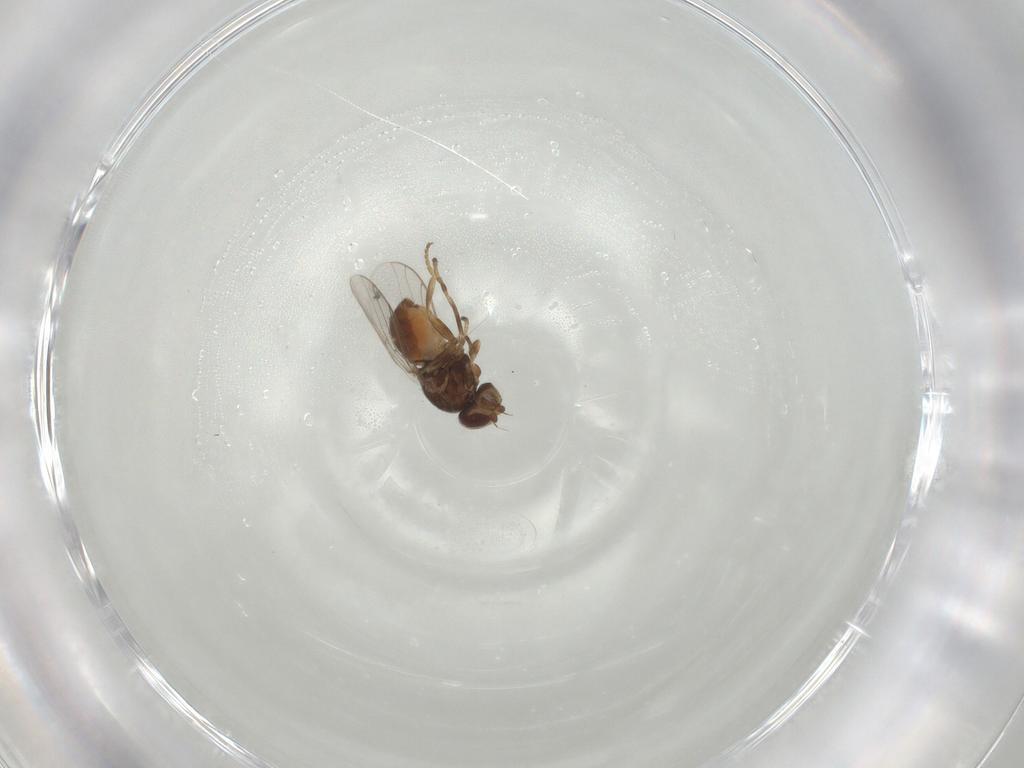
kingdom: Animalia
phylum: Arthropoda
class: Insecta
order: Diptera
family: Chloropidae
